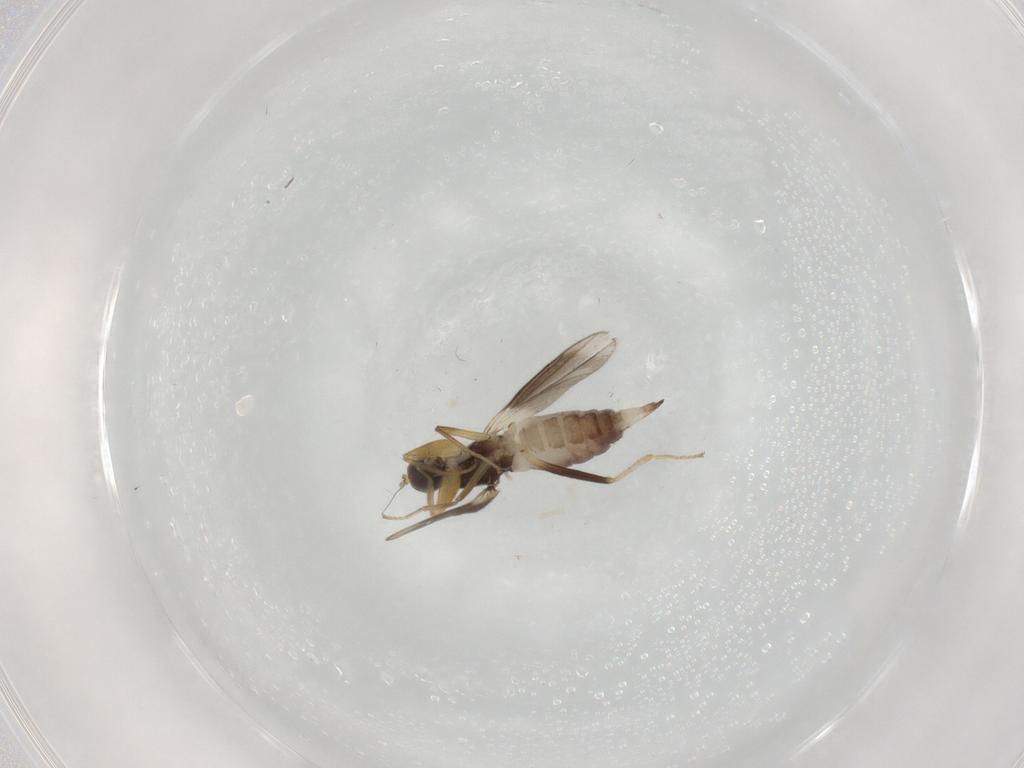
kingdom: Animalia
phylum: Arthropoda
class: Insecta
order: Diptera
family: Hybotidae
